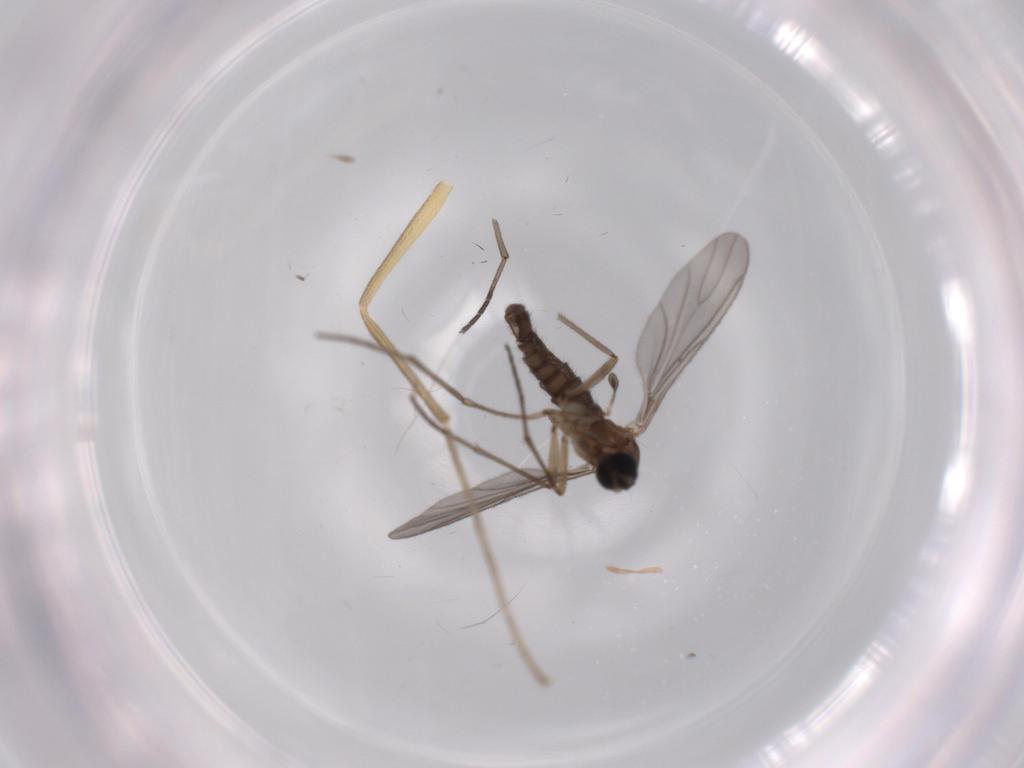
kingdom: Animalia
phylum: Arthropoda
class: Insecta
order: Diptera
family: Dolichopodidae
